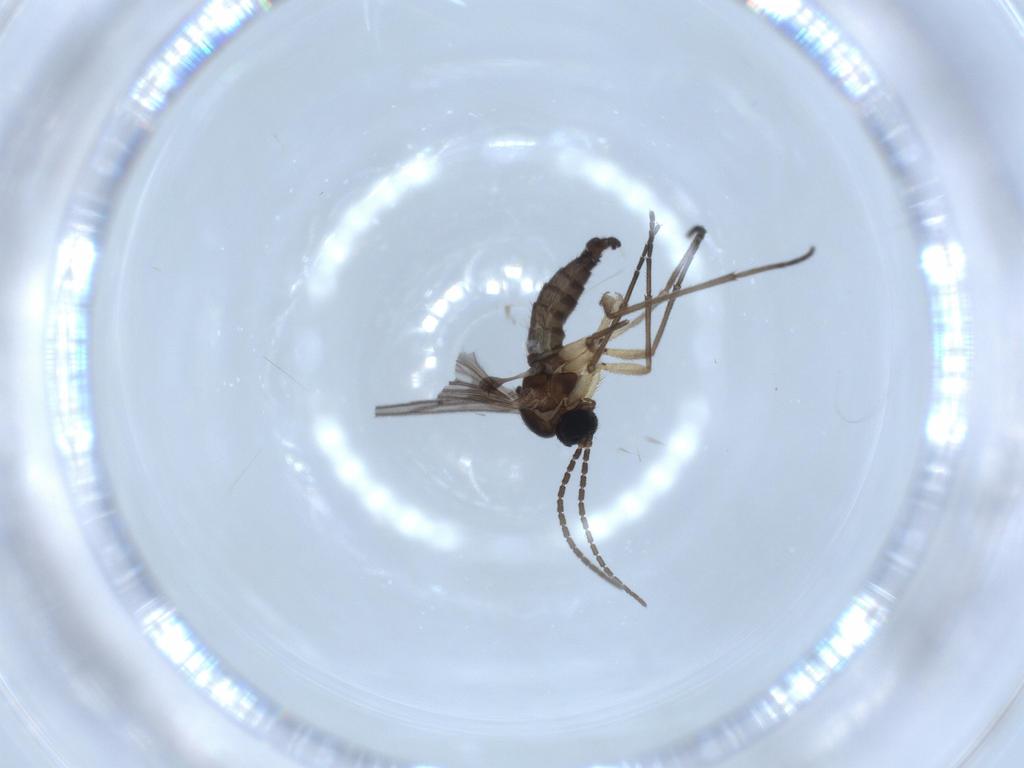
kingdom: Animalia
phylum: Arthropoda
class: Insecta
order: Diptera
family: Sciaridae
